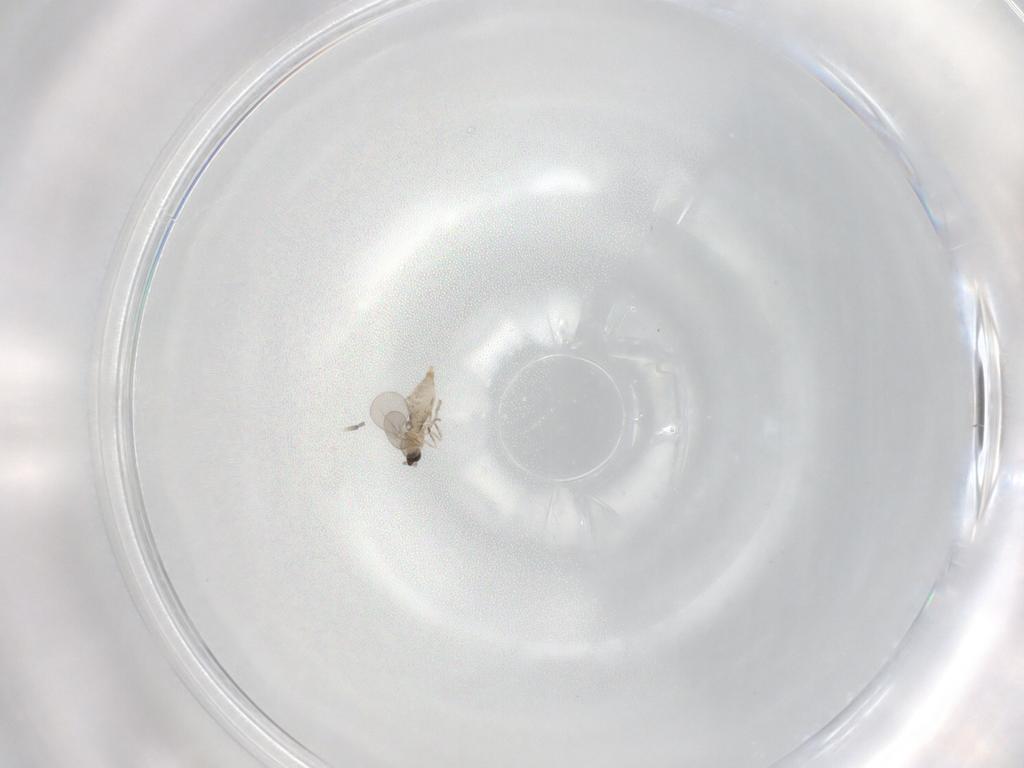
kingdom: Animalia
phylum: Arthropoda
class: Insecta
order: Diptera
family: Cecidomyiidae
